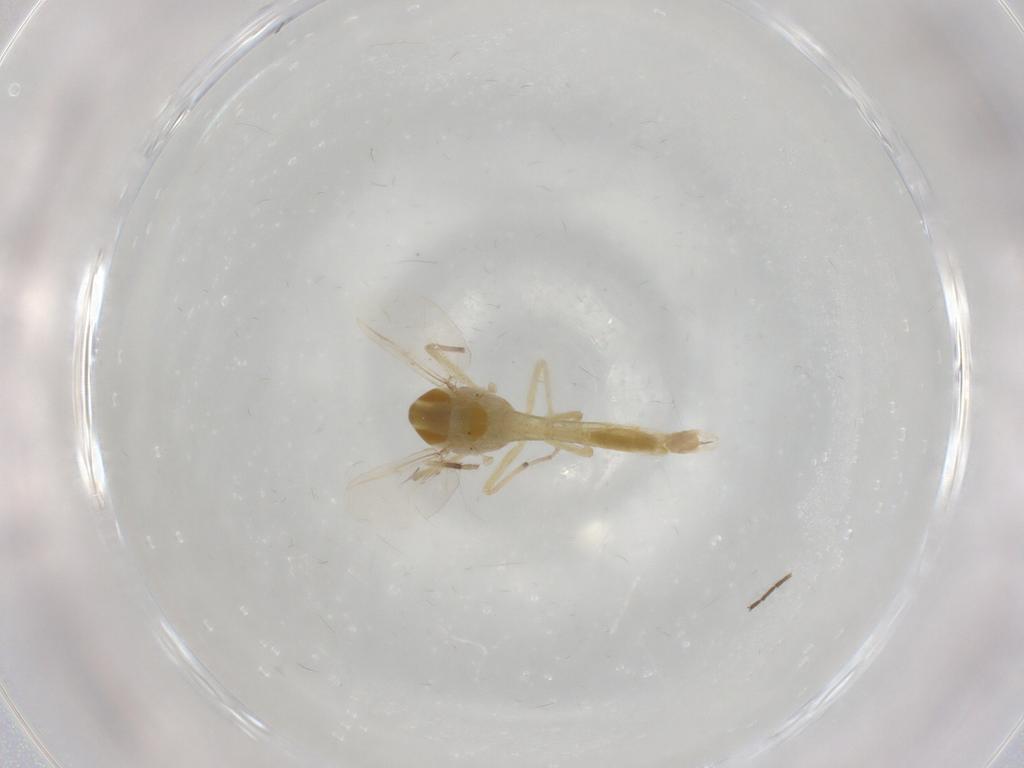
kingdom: Animalia
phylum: Arthropoda
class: Insecta
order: Diptera
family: Chironomidae
